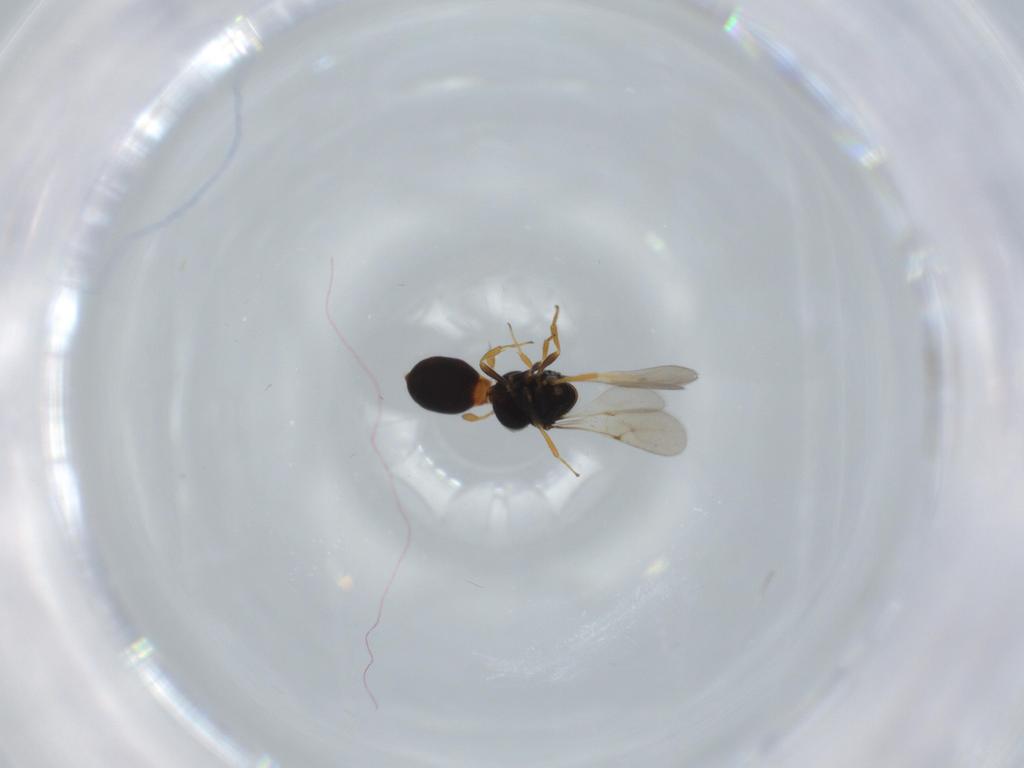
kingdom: Animalia
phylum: Arthropoda
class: Insecta
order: Hymenoptera
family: Scelionidae
